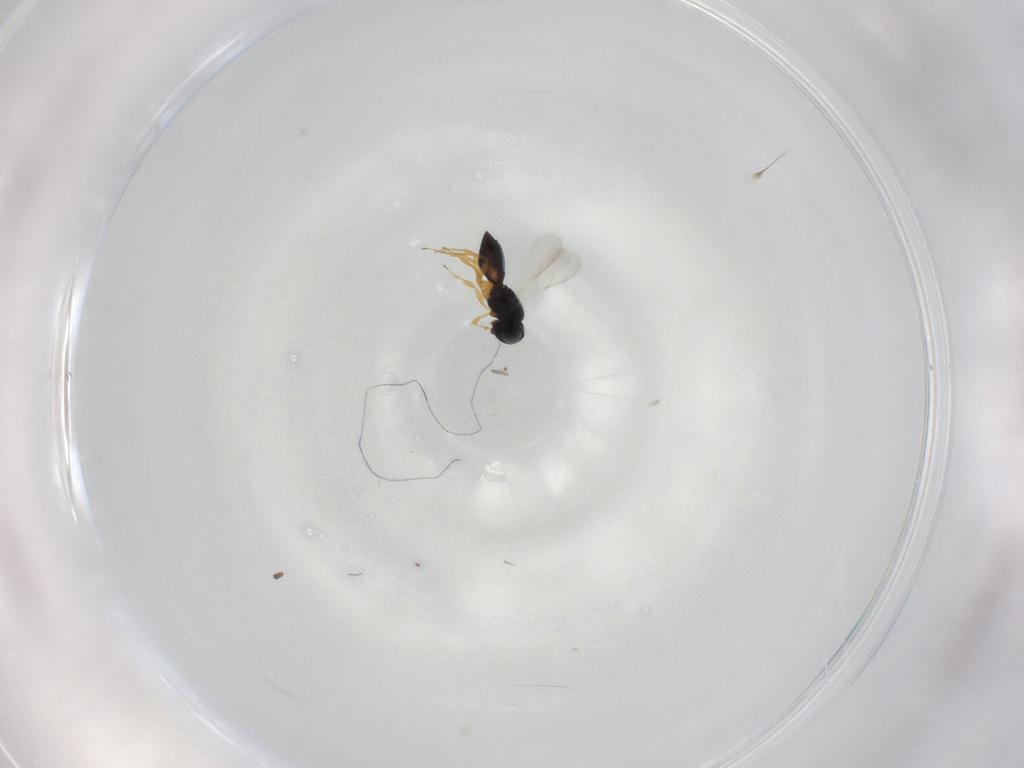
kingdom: Animalia
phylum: Arthropoda
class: Insecta
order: Hymenoptera
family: Scelionidae
